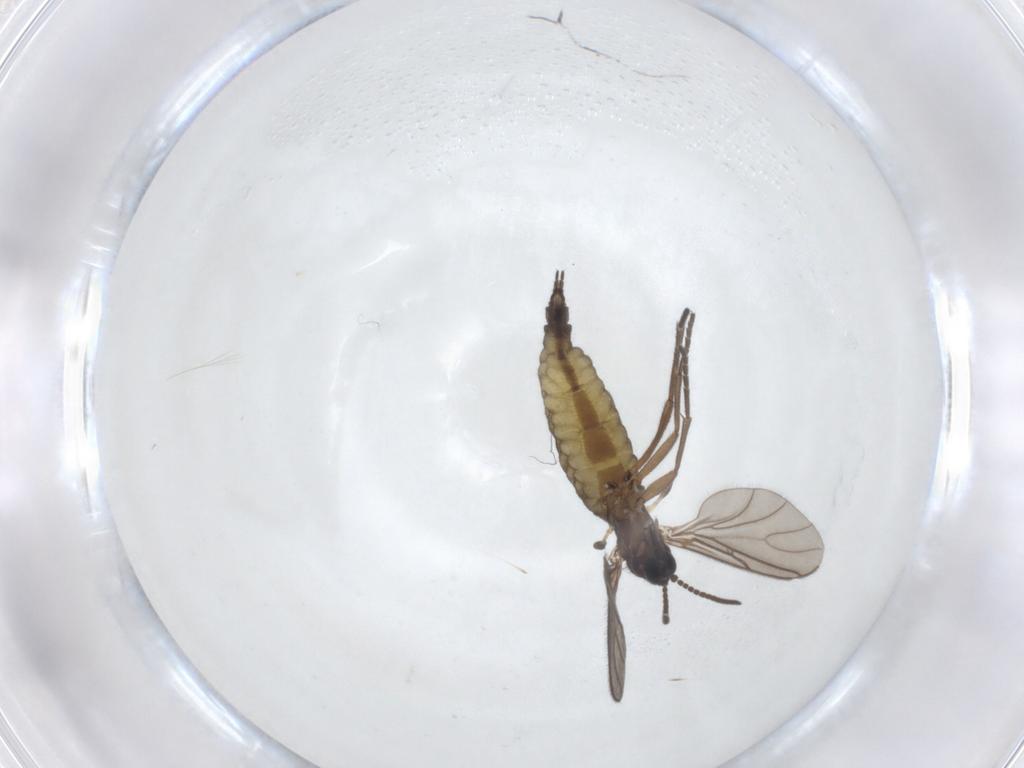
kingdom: Animalia
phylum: Arthropoda
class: Insecta
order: Diptera
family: Sciaridae
